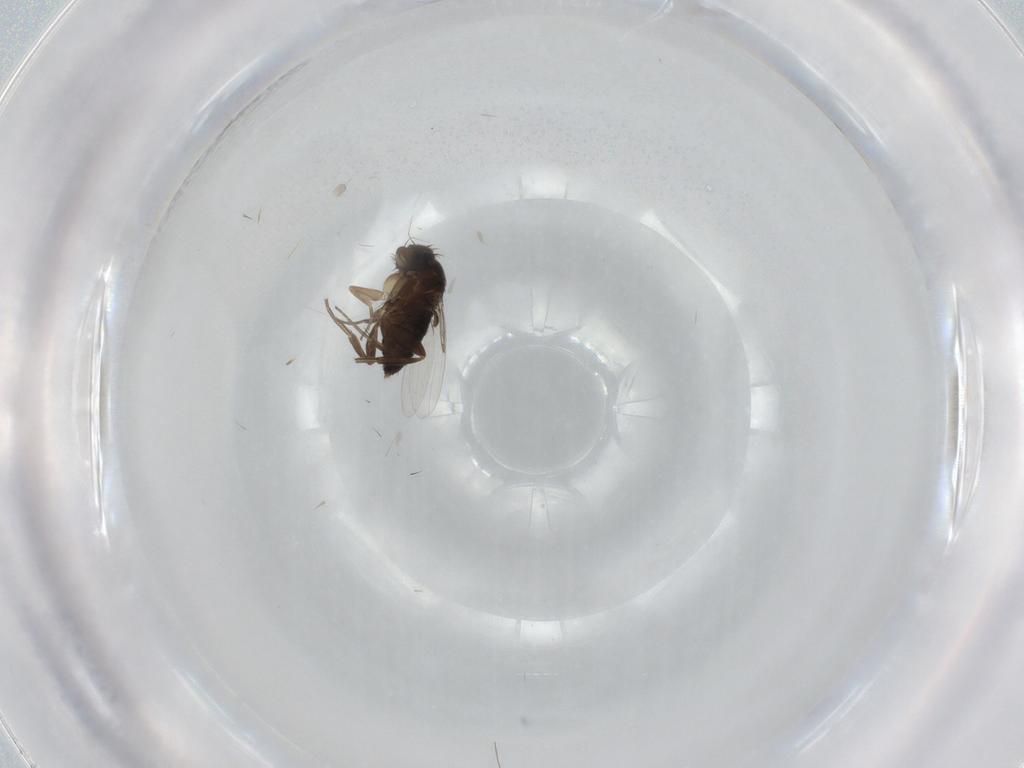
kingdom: Animalia
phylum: Arthropoda
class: Insecta
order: Diptera
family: Phoridae
